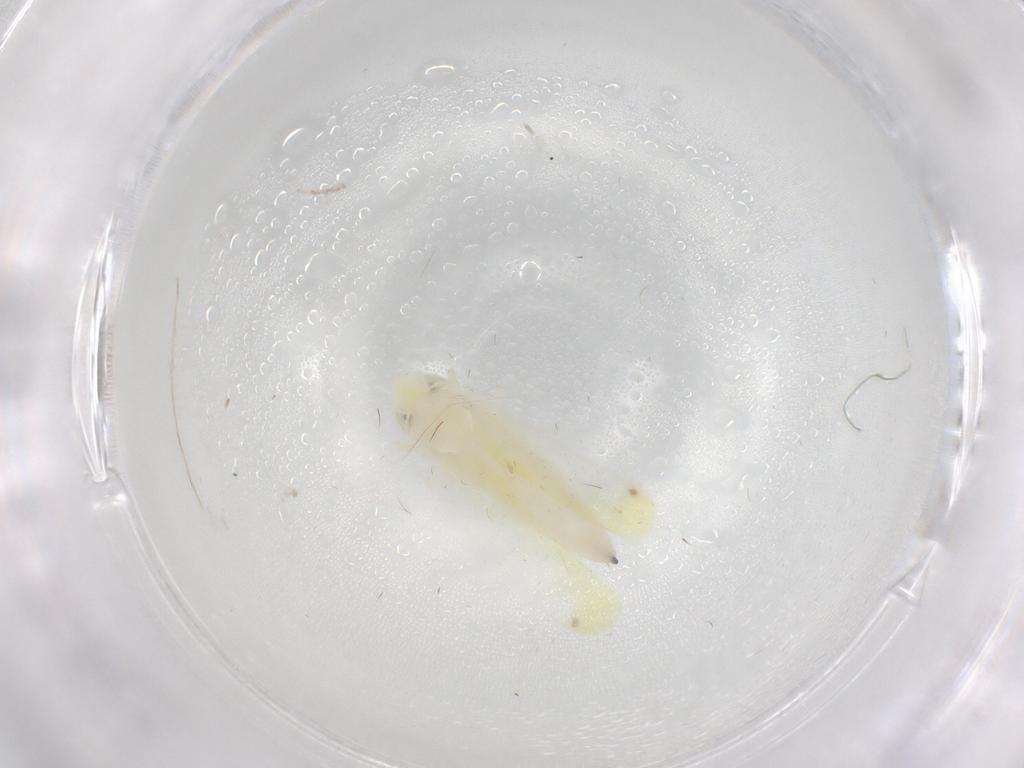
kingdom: Animalia
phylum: Arthropoda
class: Insecta
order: Hemiptera
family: Cicadellidae
